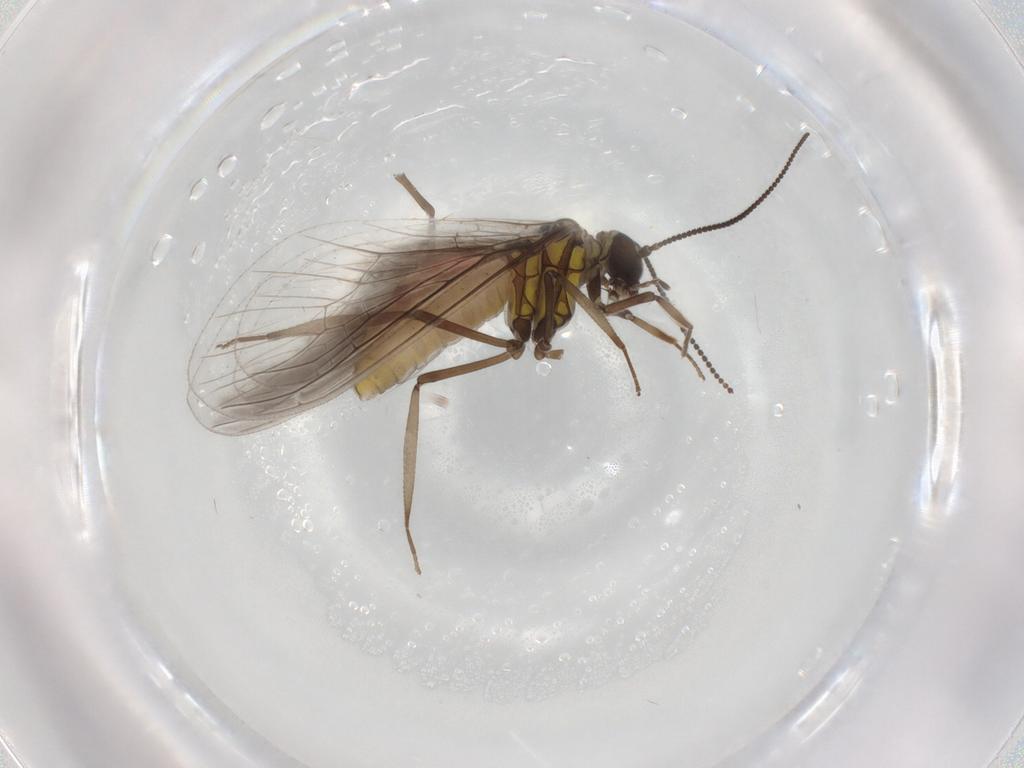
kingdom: Animalia
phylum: Arthropoda
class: Insecta
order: Neuroptera
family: Coniopterygidae
